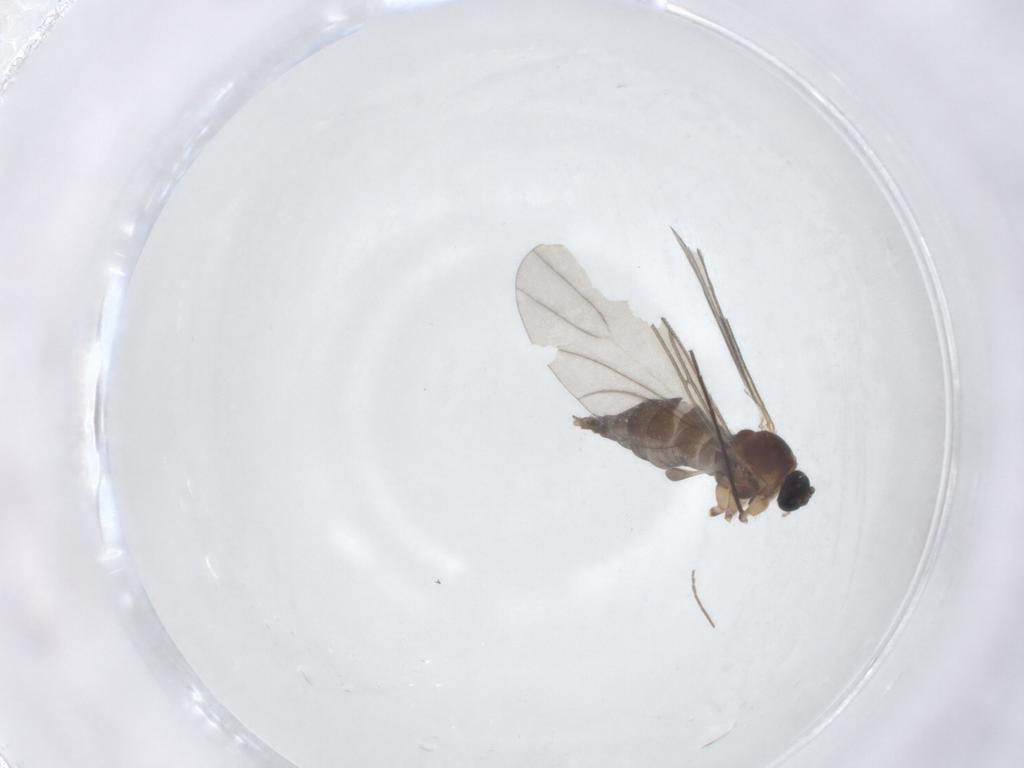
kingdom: Animalia
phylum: Arthropoda
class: Insecta
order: Diptera
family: Sciaridae
